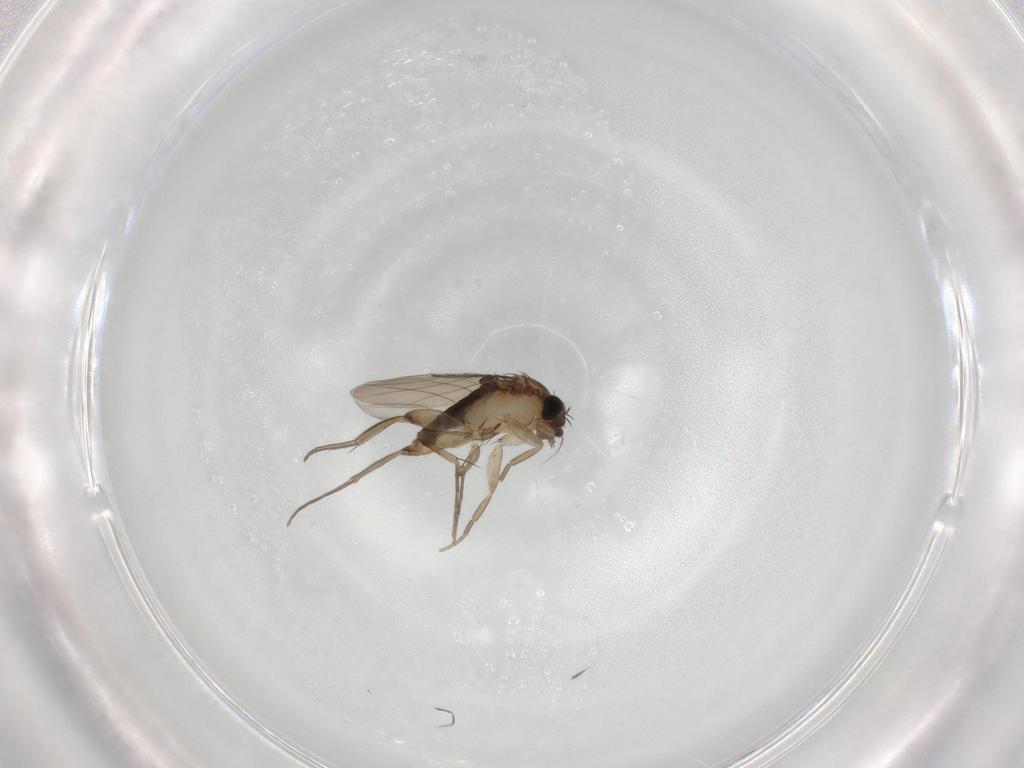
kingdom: Animalia
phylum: Arthropoda
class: Insecta
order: Diptera
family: Phoridae
